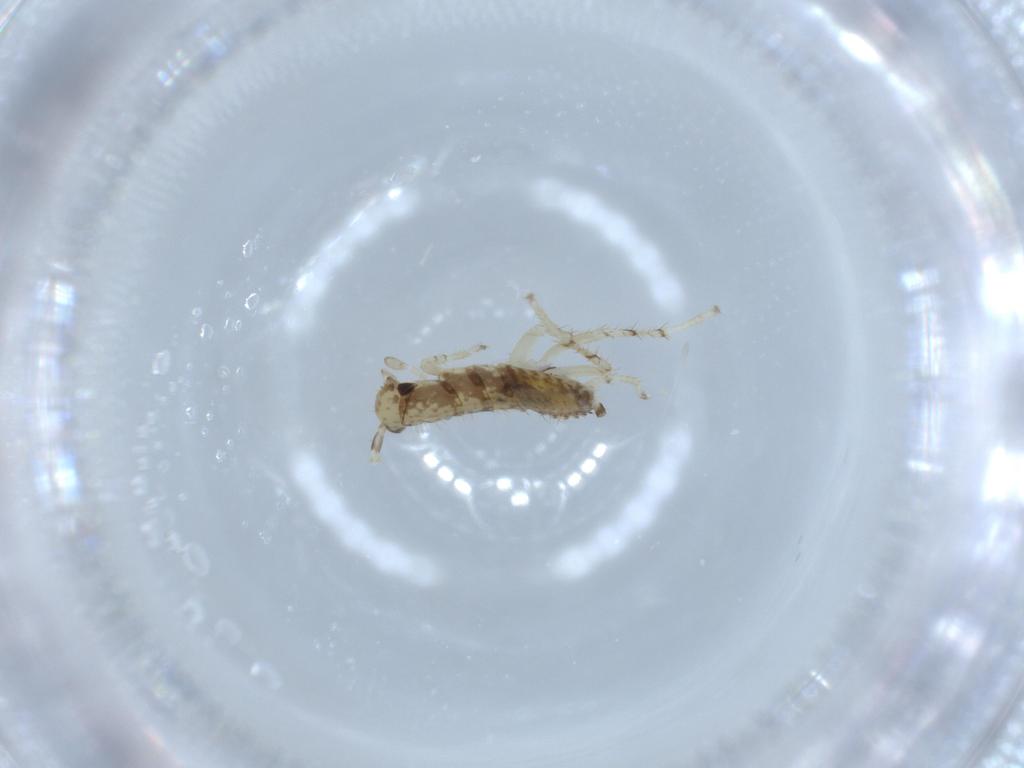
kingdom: Animalia
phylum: Arthropoda
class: Insecta
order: Blattodea
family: Ectobiidae
